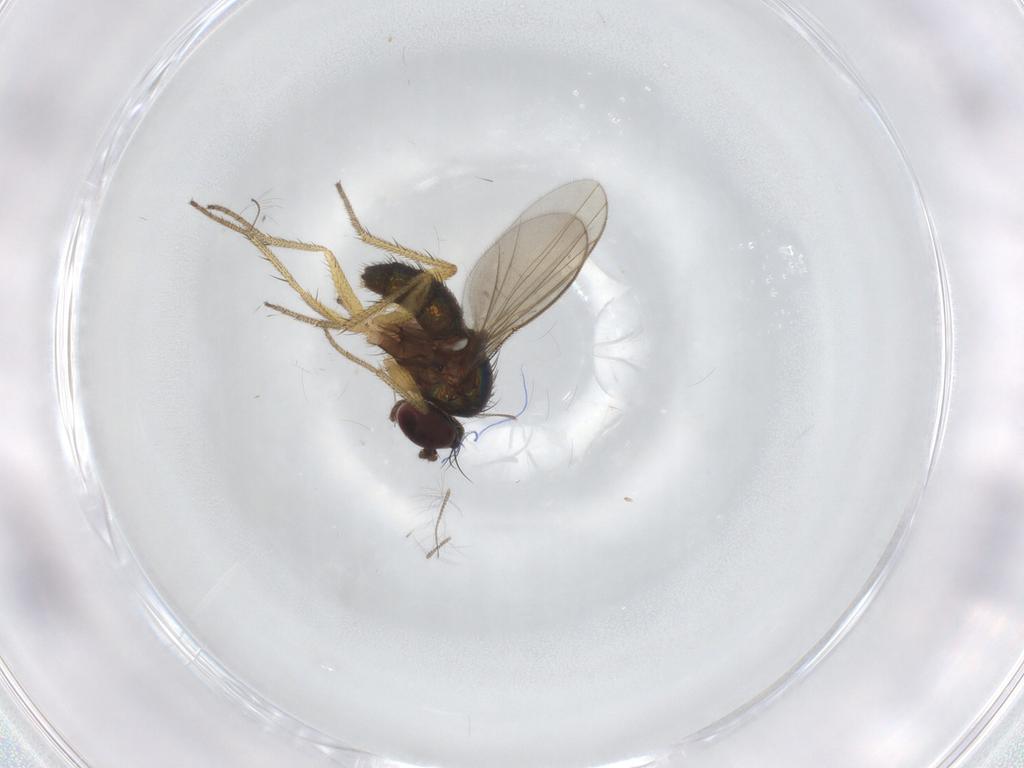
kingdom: Animalia
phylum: Arthropoda
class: Insecta
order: Diptera
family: Dolichopodidae
